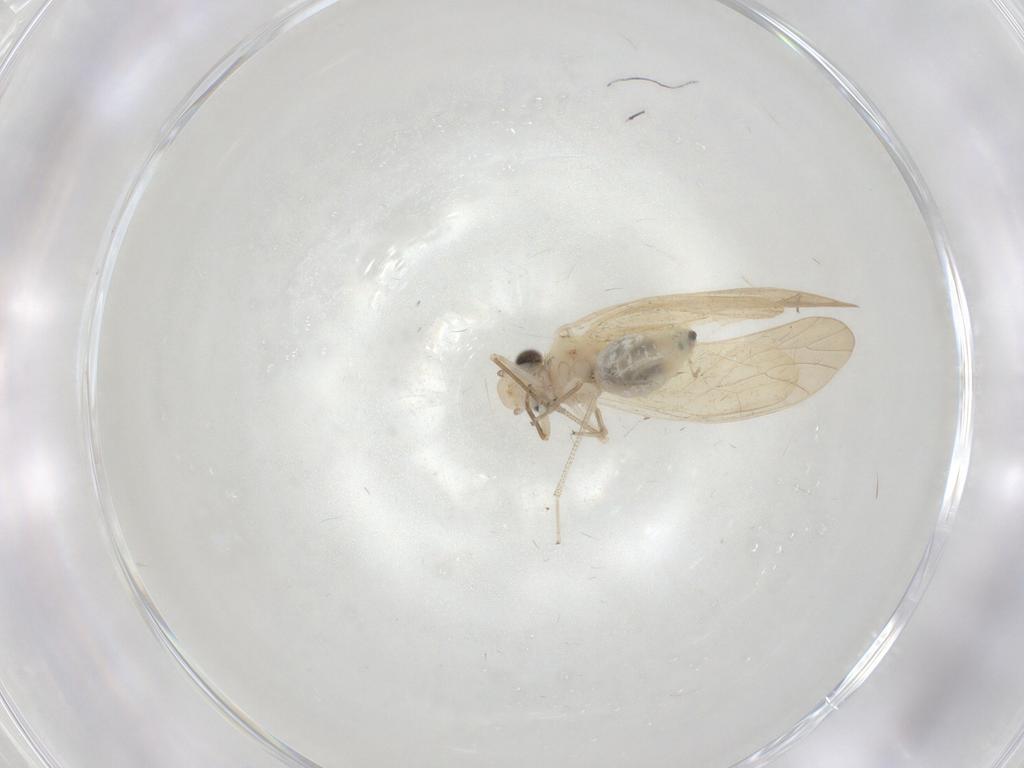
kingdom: Animalia
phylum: Arthropoda
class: Insecta
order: Psocodea
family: Caeciliusidae
